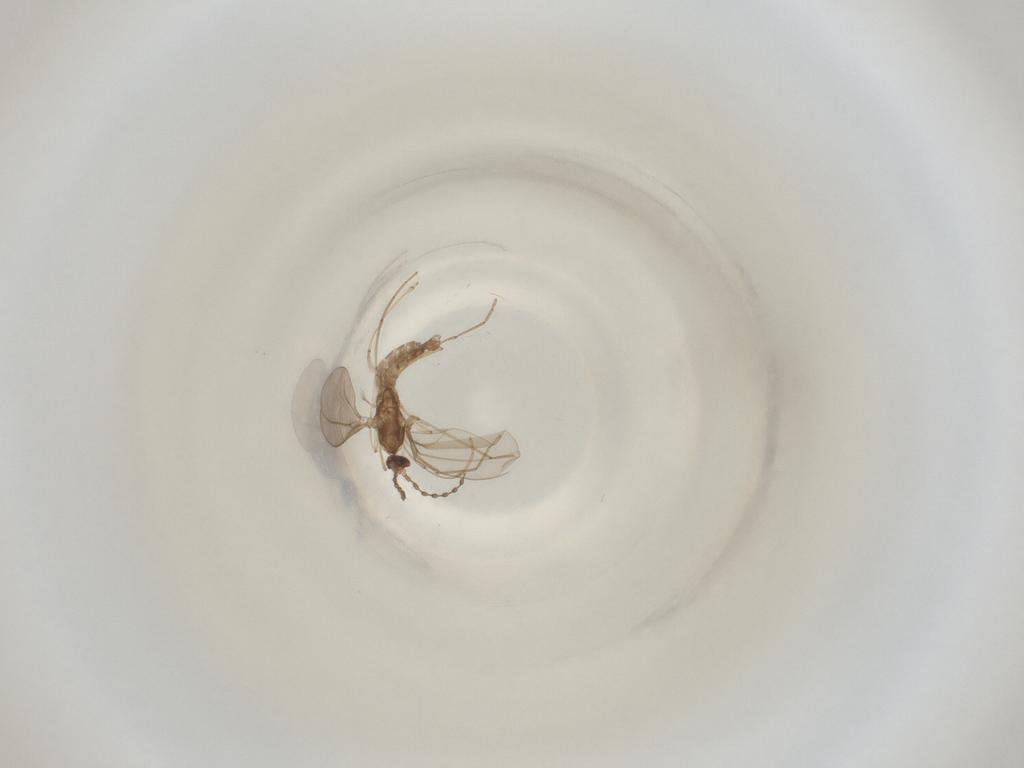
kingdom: Animalia
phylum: Arthropoda
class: Insecta
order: Diptera
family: Cecidomyiidae
